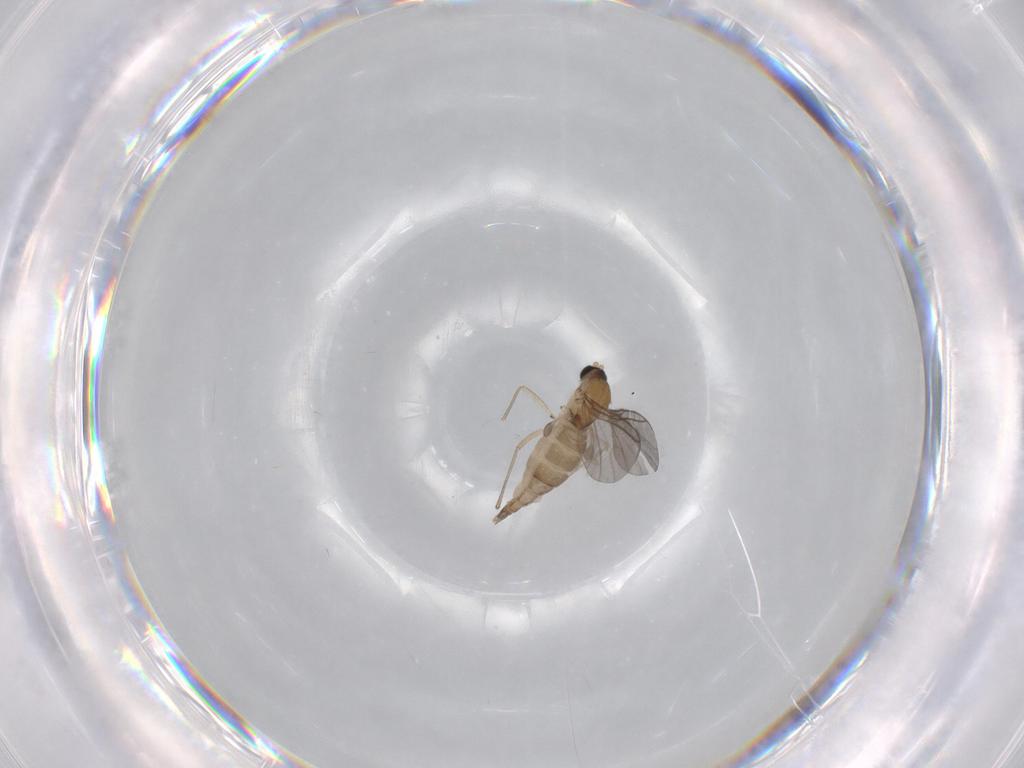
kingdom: Animalia
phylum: Arthropoda
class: Insecta
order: Diptera
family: Sciaridae
